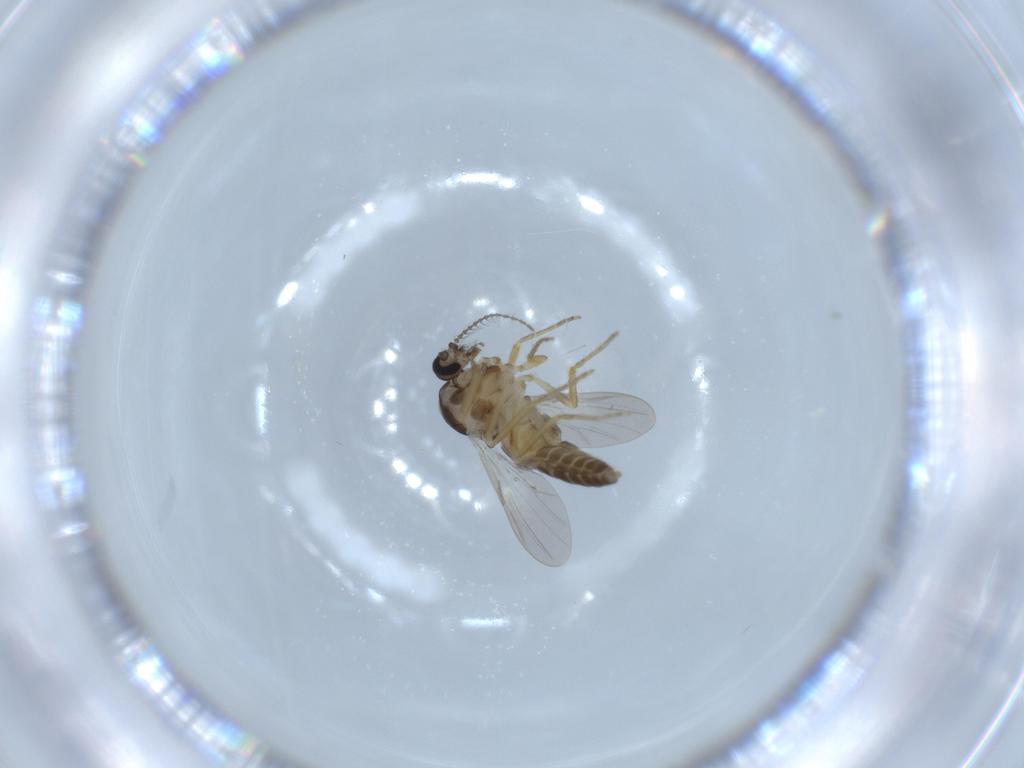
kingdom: Animalia
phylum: Arthropoda
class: Insecta
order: Diptera
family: Ceratopogonidae
